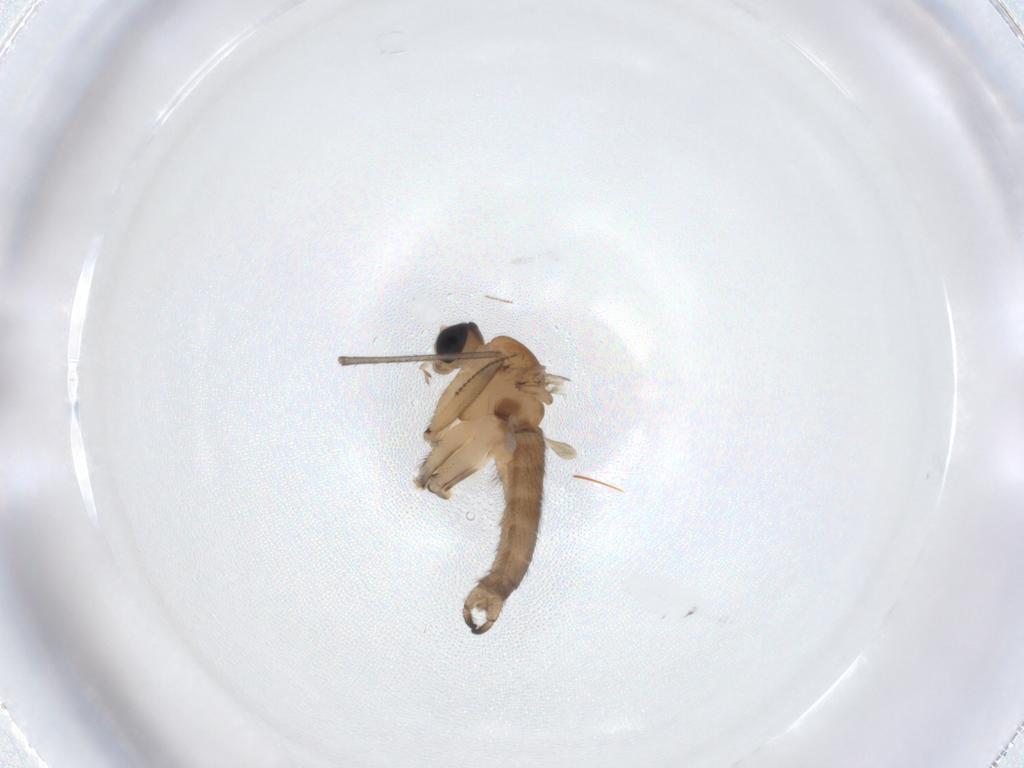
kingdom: Animalia
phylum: Arthropoda
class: Insecta
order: Diptera
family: Sciaridae
